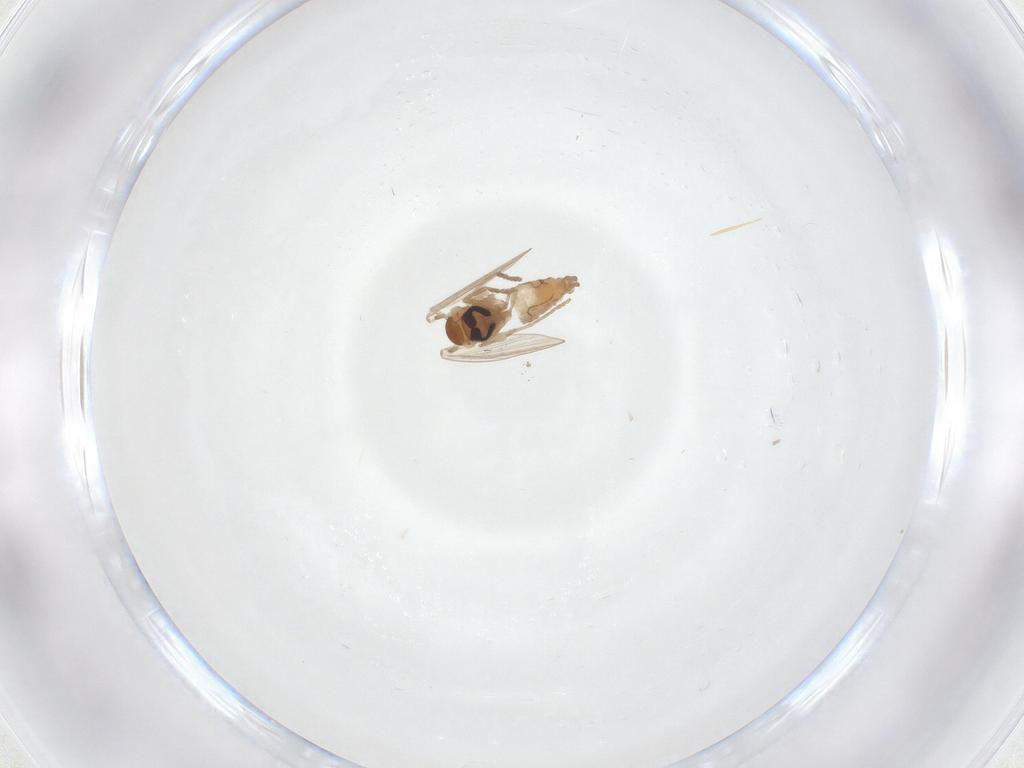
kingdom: Animalia
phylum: Arthropoda
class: Insecta
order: Diptera
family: Psychodidae
